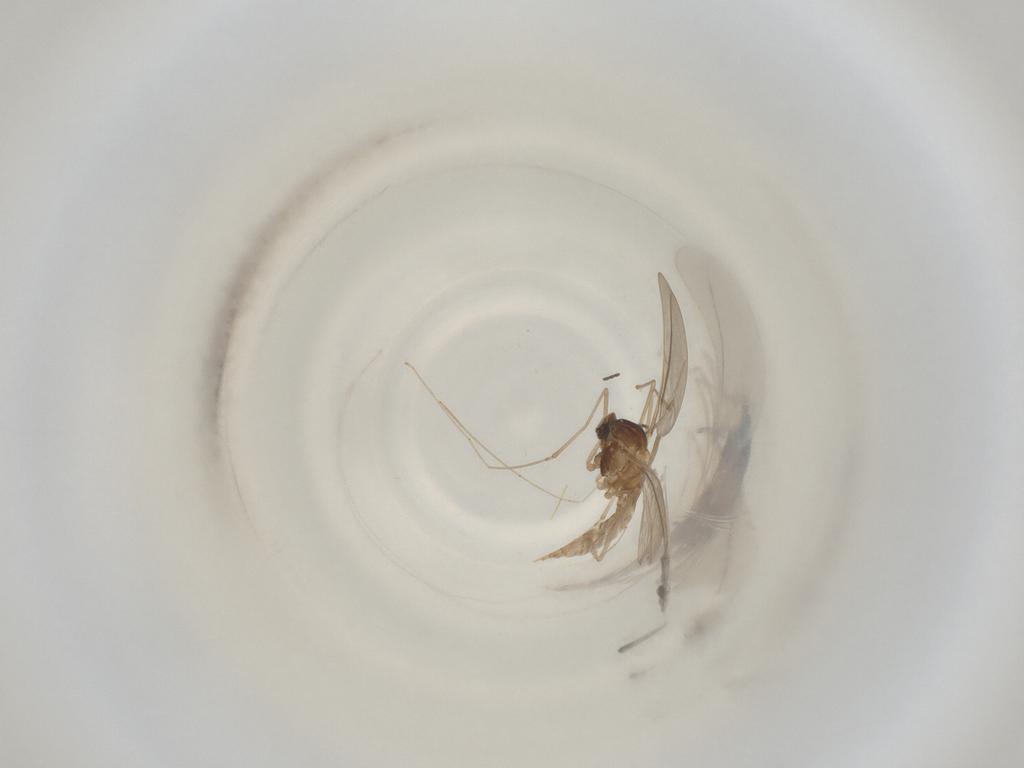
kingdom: Animalia
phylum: Arthropoda
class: Insecta
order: Diptera
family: Cecidomyiidae
